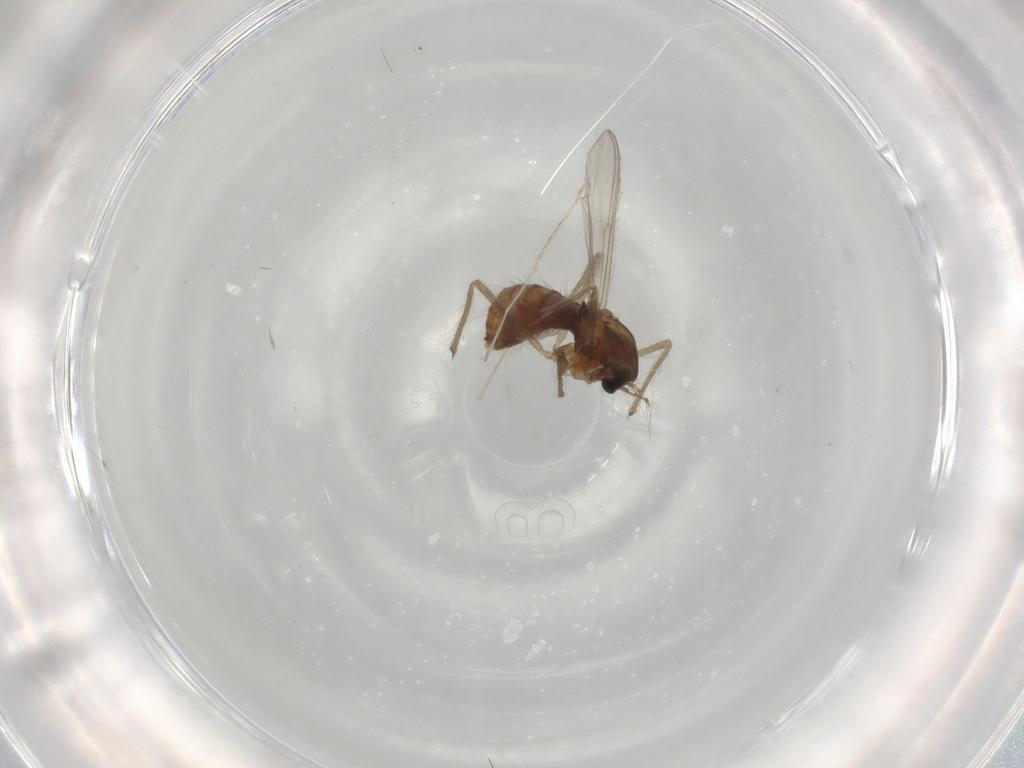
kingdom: Animalia
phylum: Arthropoda
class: Insecta
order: Diptera
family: Chironomidae
